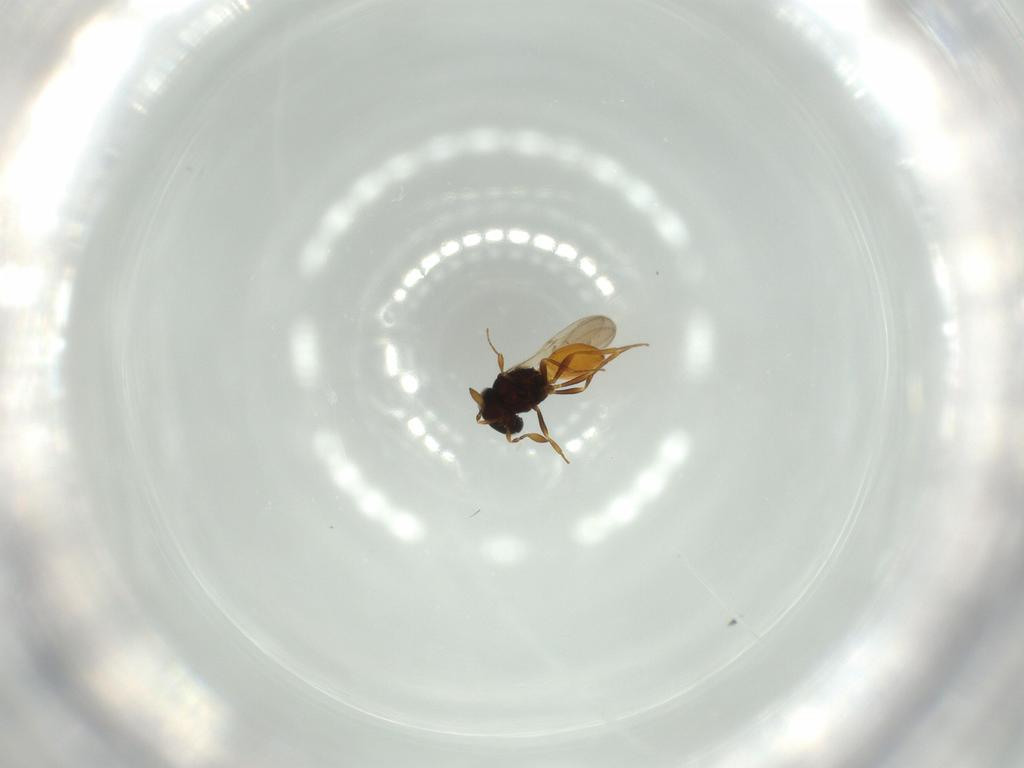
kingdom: Animalia
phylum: Arthropoda
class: Insecta
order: Hymenoptera
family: Scelionidae
